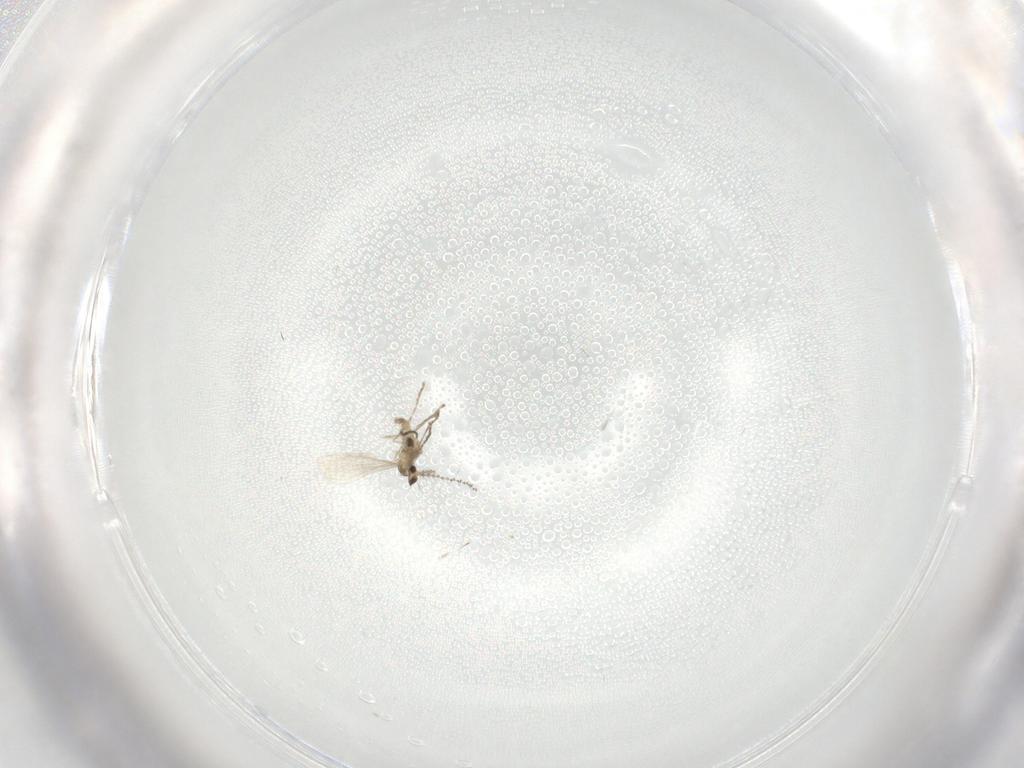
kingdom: Animalia
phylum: Arthropoda
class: Insecta
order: Diptera
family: Cecidomyiidae
